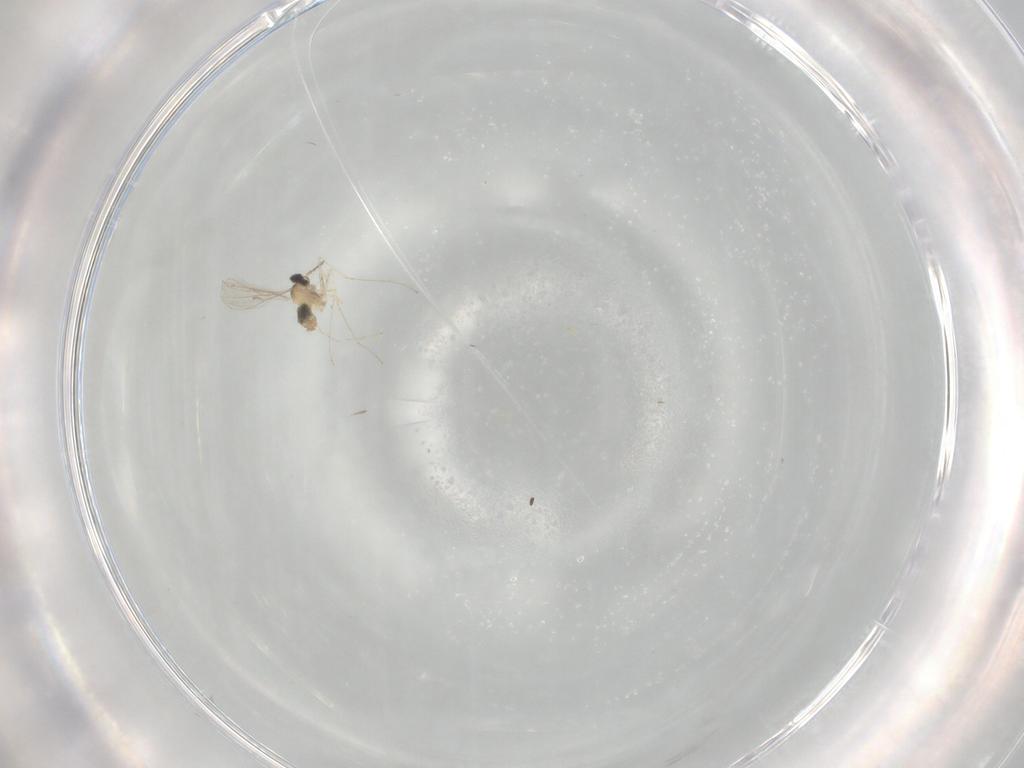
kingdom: Animalia
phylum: Arthropoda
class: Insecta
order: Diptera
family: Cecidomyiidae
